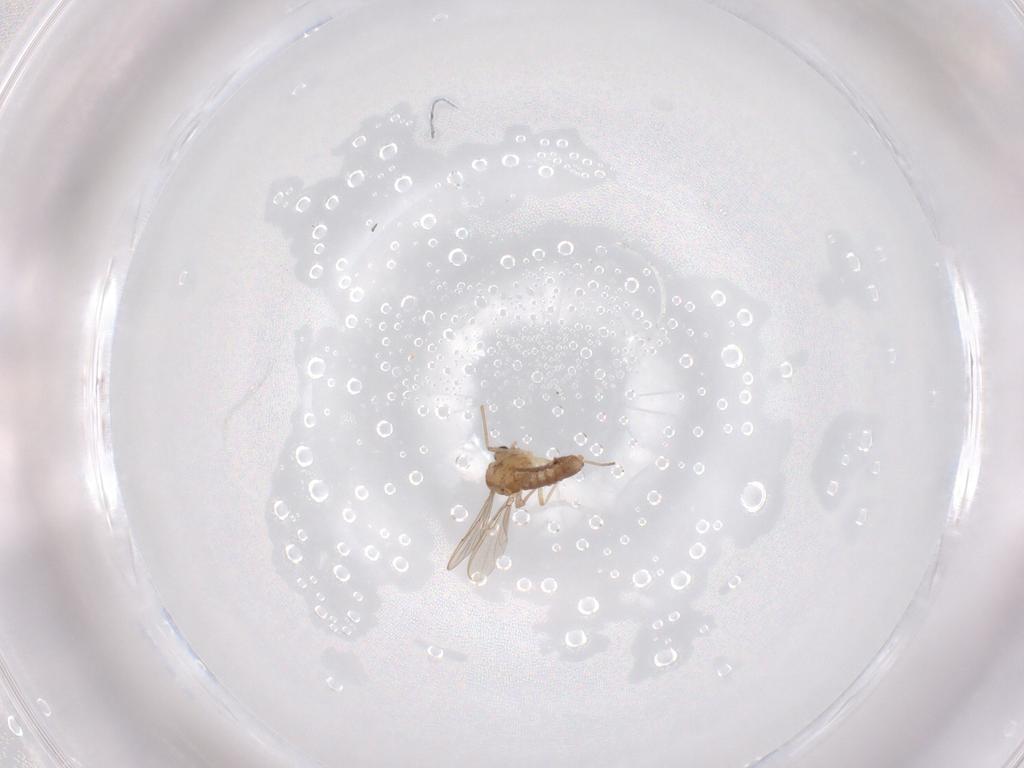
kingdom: Animalia
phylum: Arthropoda
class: Insecta
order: Diptera
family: Chironomidae
